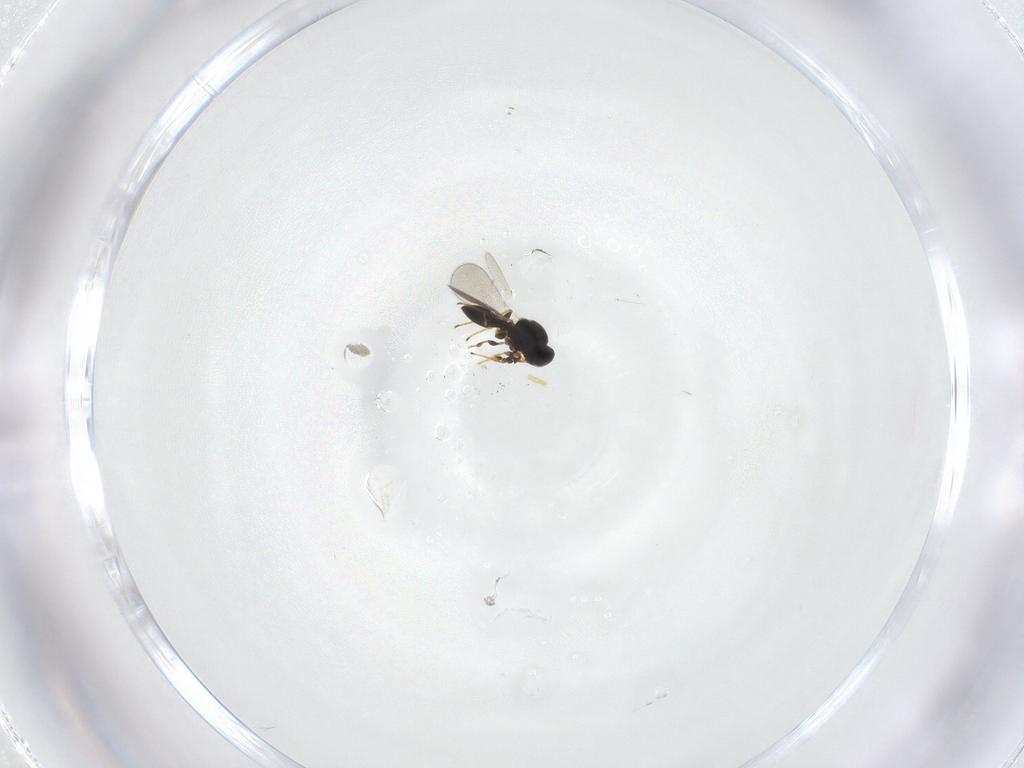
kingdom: Animalia
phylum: Arthropoda
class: Insecta
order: Hymenoptera
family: Platygastridae
